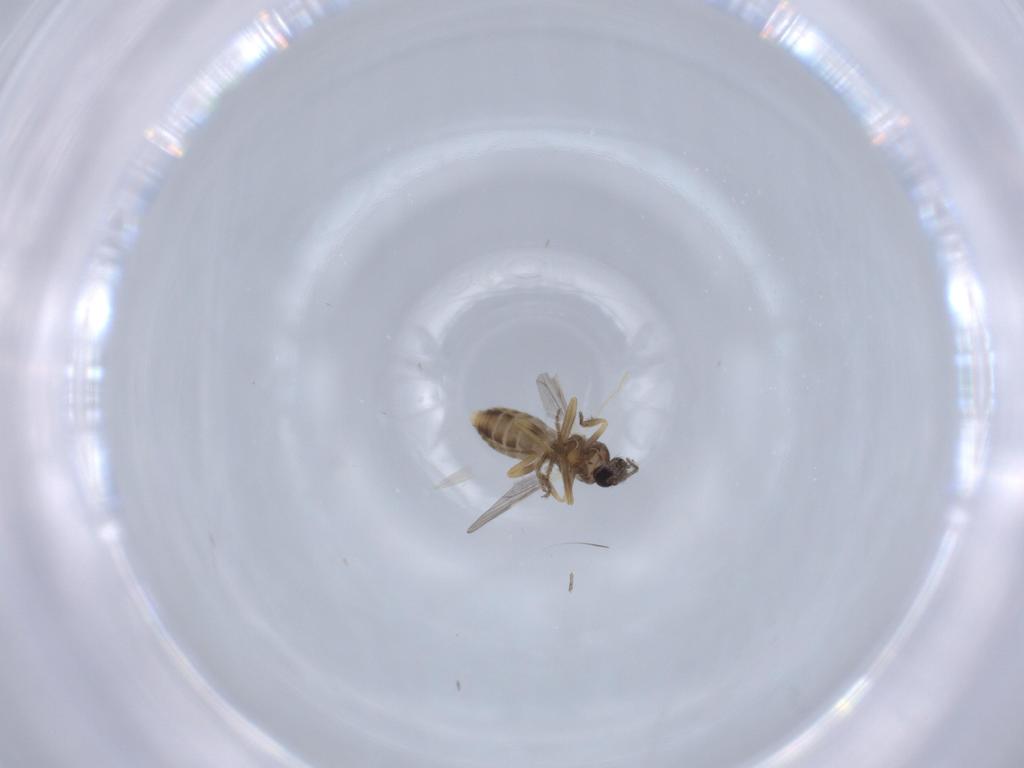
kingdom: Animalia
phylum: Arthropoda
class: Insecta
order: Diptera
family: Ceratopogonidae
